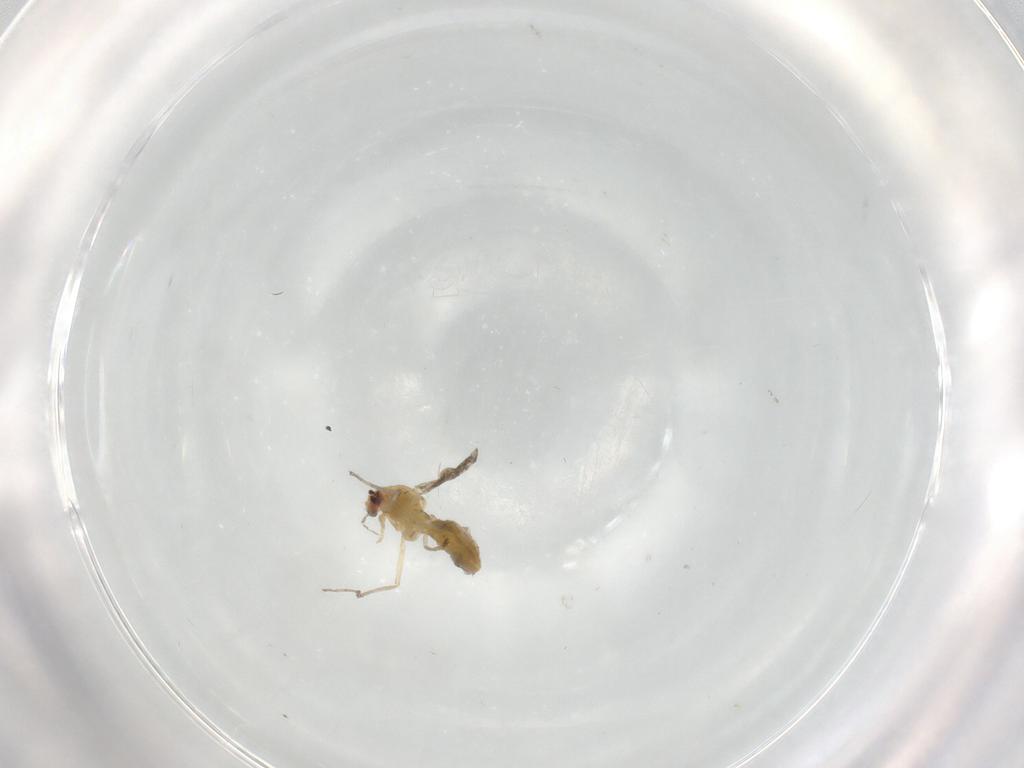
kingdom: Animalia
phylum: Arthropoda
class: Insecta
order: Diptera
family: Chironomidae
